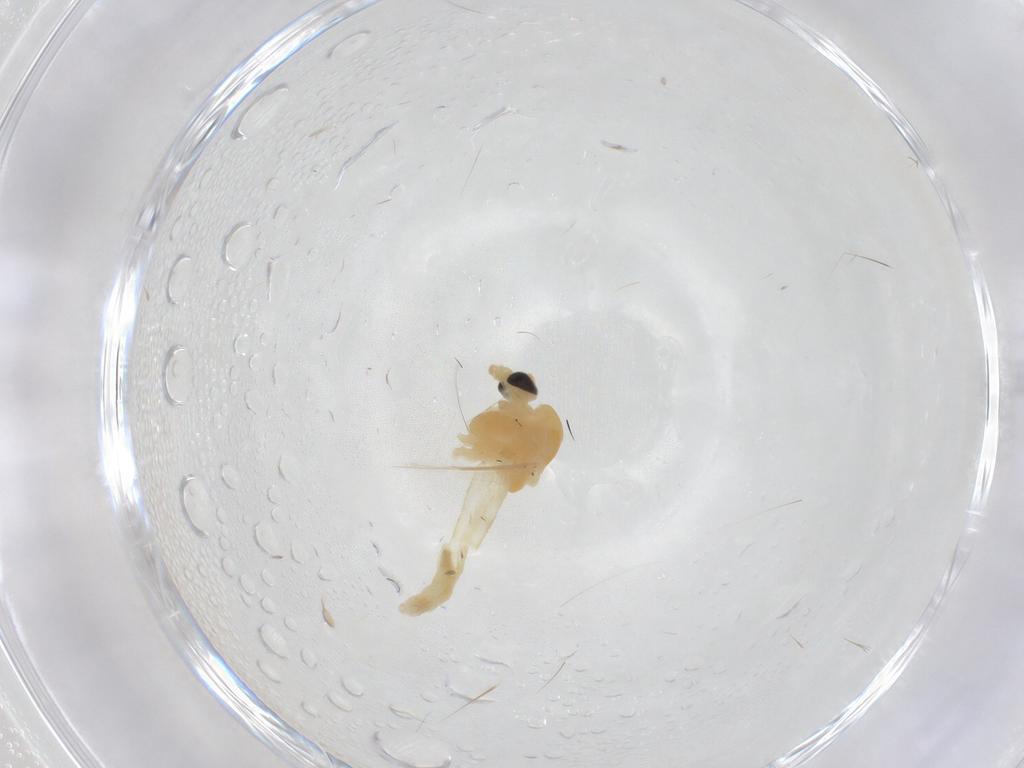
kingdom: Animalia
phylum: Arthropoda
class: Insecta
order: Diptera
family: Chironomidae
